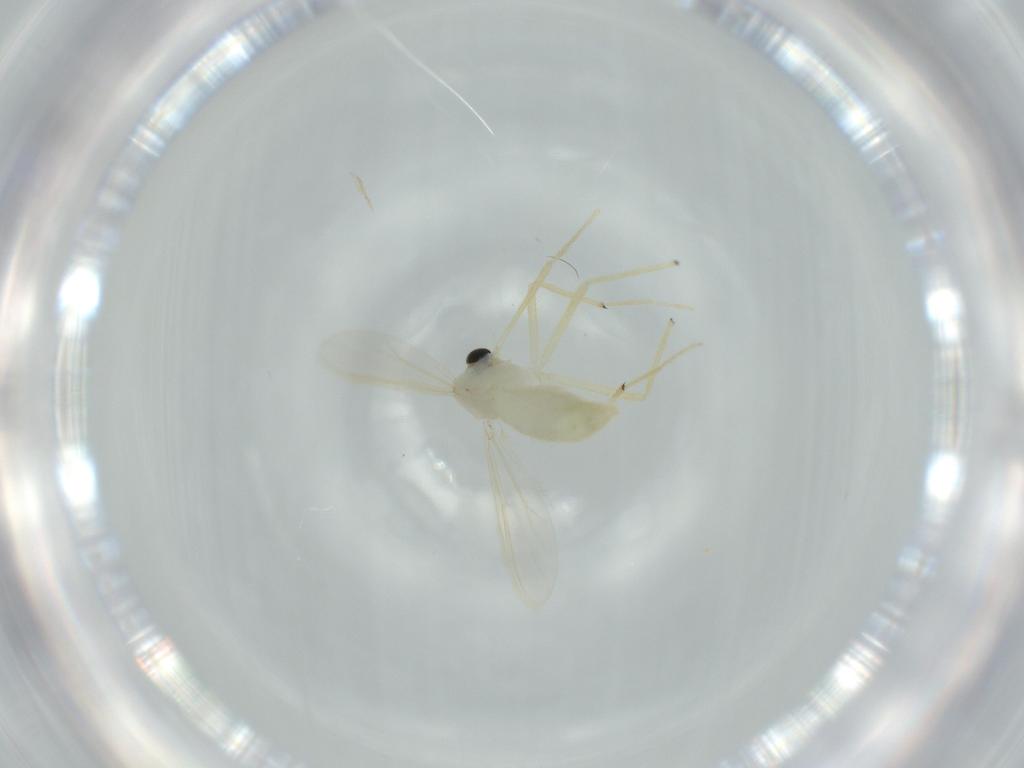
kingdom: Animalia
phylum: Arthropoda
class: Insecta
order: Diptera
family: Chironomidae
